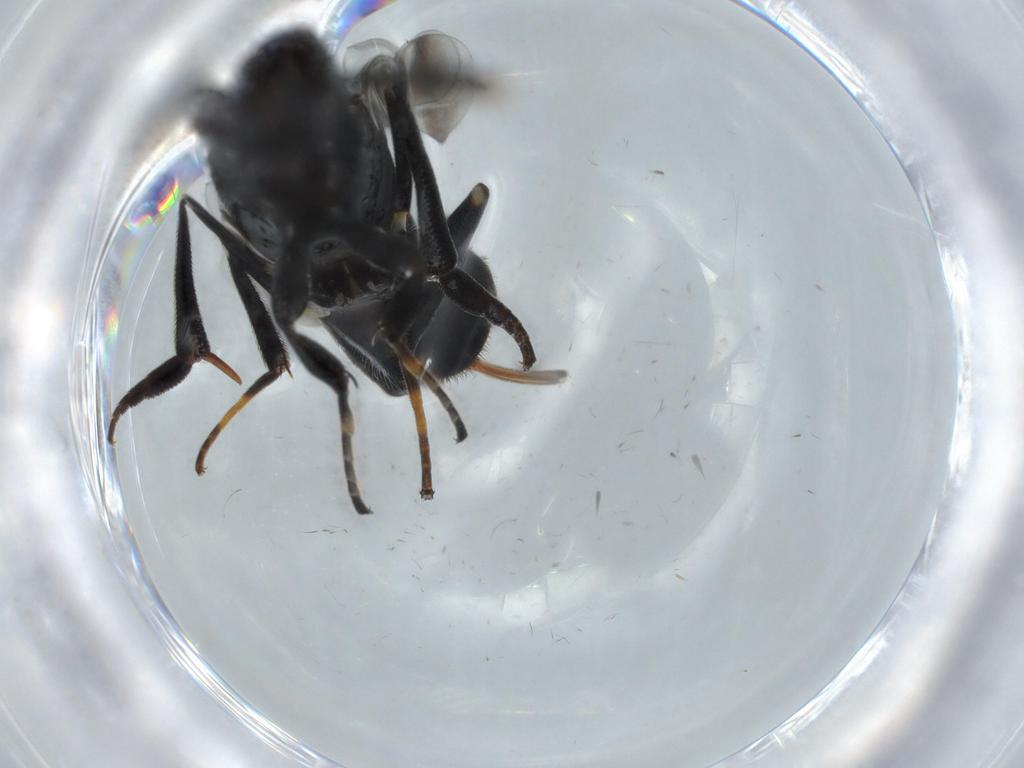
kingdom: Animalia
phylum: Arthropoda
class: Insecta
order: Hymenoptera
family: Eupelmidae
